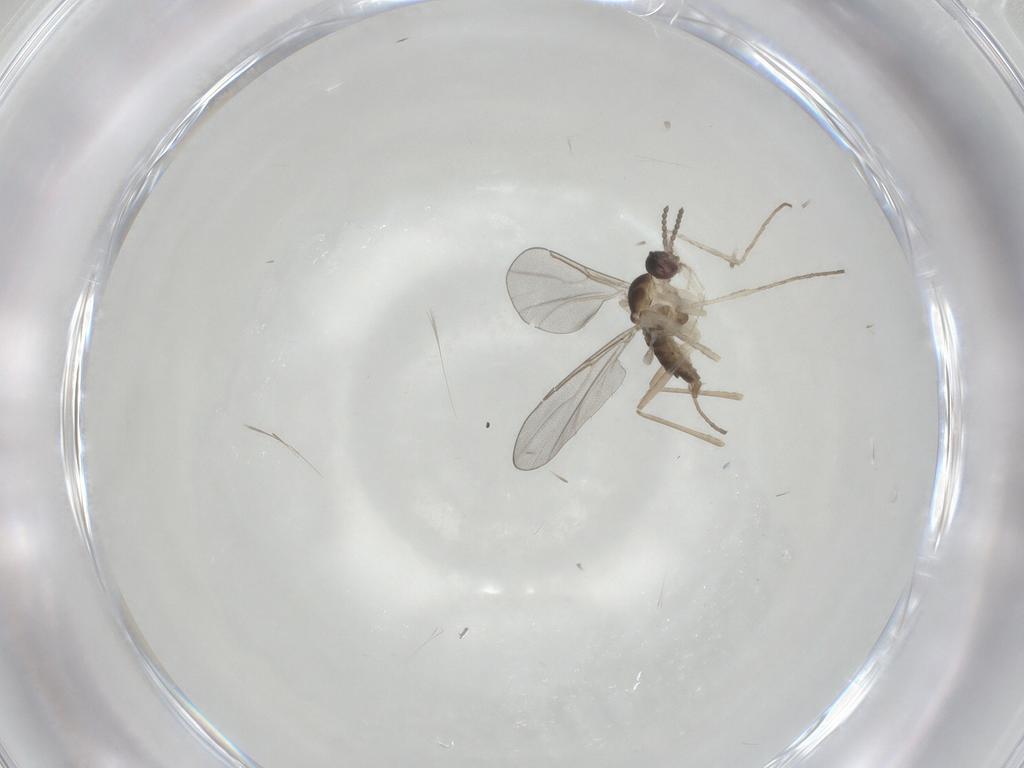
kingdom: Animalia
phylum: Arthropoda
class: Insecta
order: Diptera
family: Cecidomyiidae
